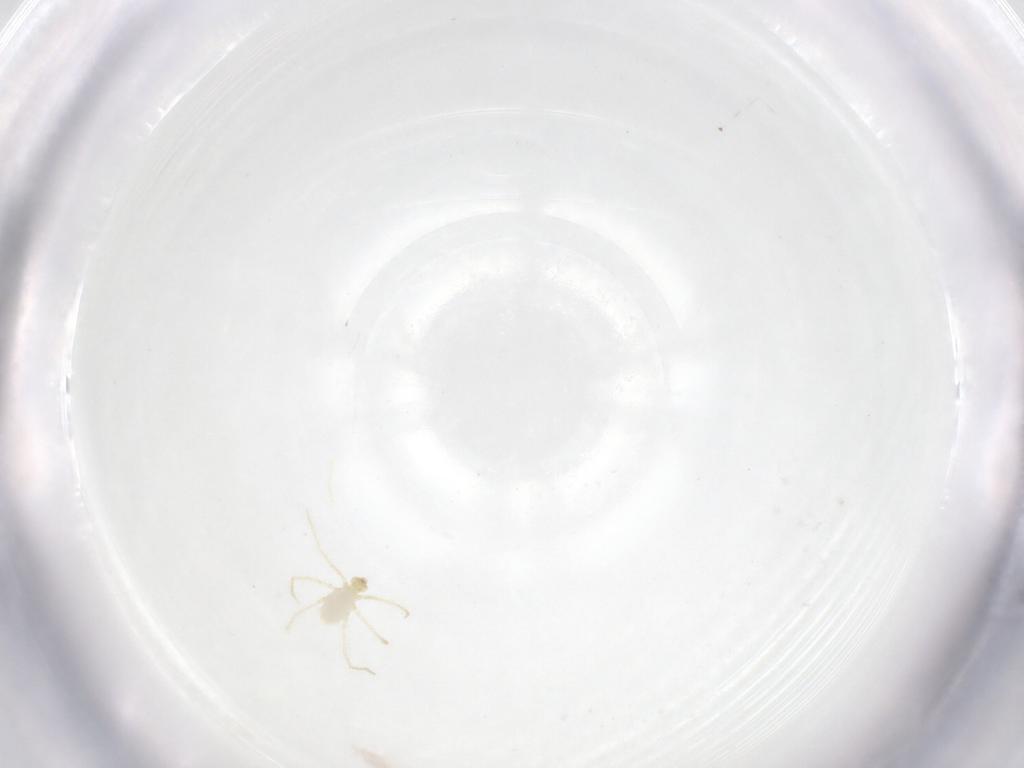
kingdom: Animalia
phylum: Arthropoda
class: Arachnida
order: Trombidiformes
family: Erythraeidae
